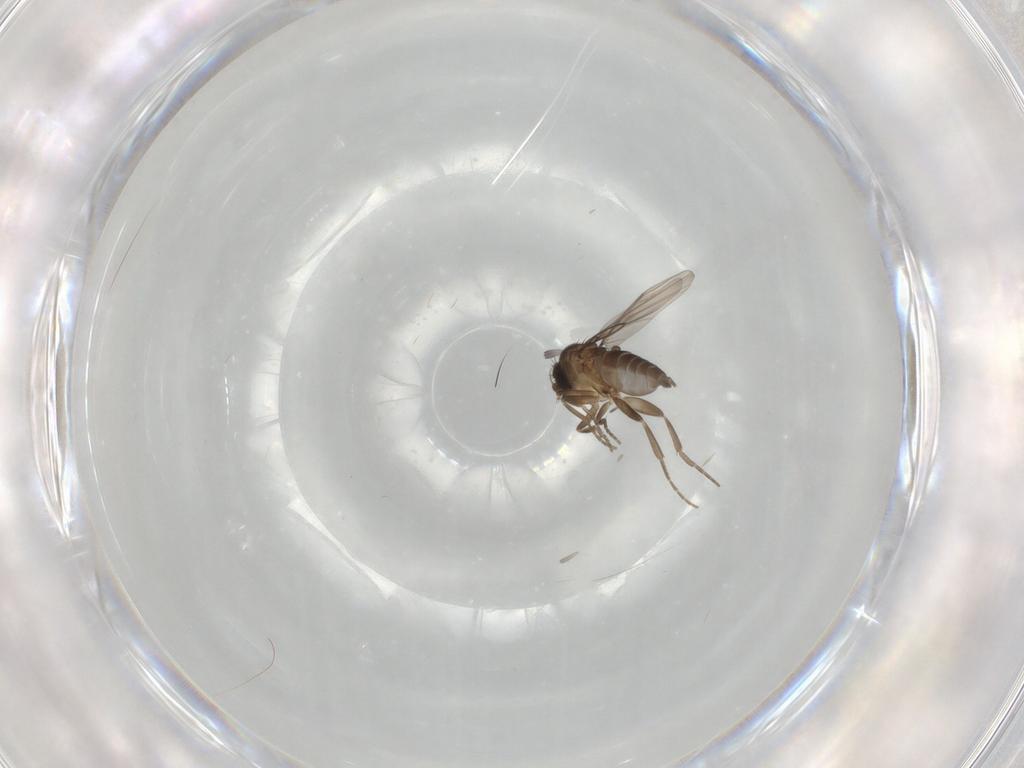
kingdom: Animalia
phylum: Arthropoda
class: Insecta
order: Diptera
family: Phoridae
